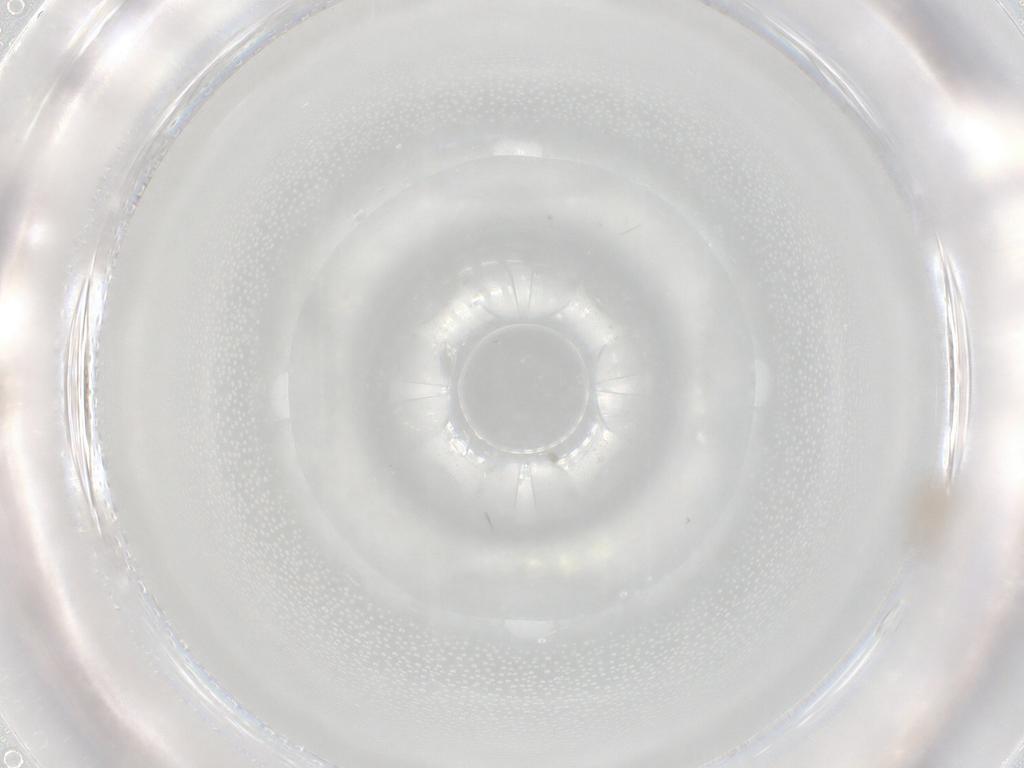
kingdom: Animalia
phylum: Arthropoda
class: Insecta
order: Diptera
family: Cecidomyiidae
